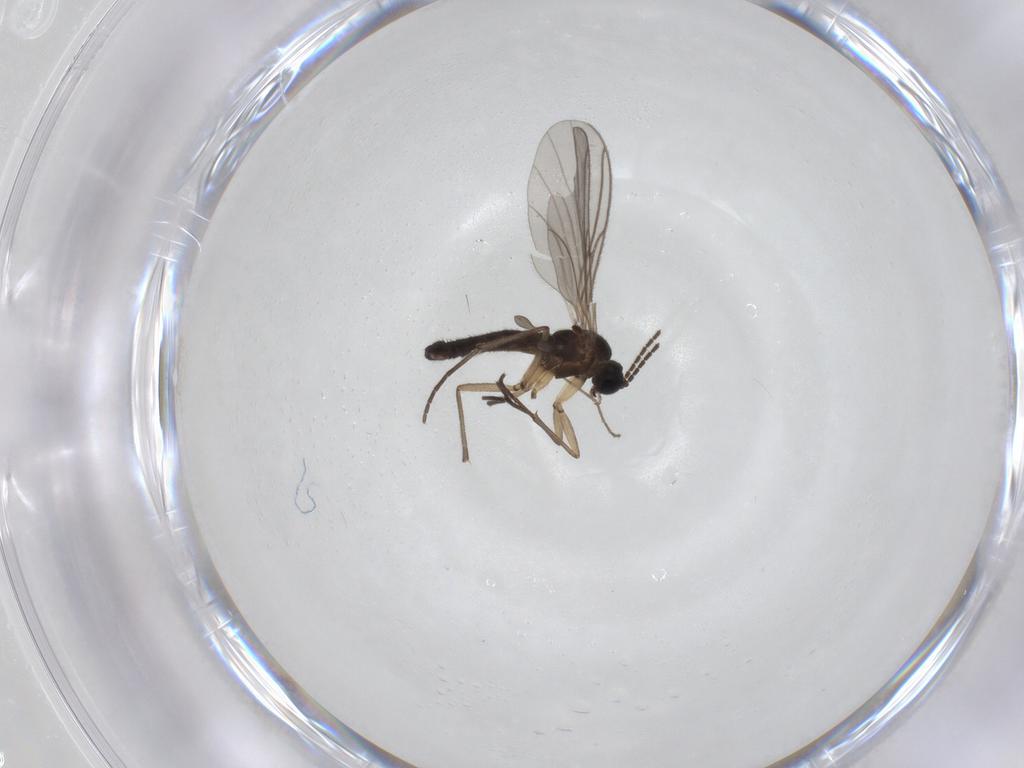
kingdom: Animalia
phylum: Arthropoda
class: Insecta
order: Diptera
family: Sciaridae
